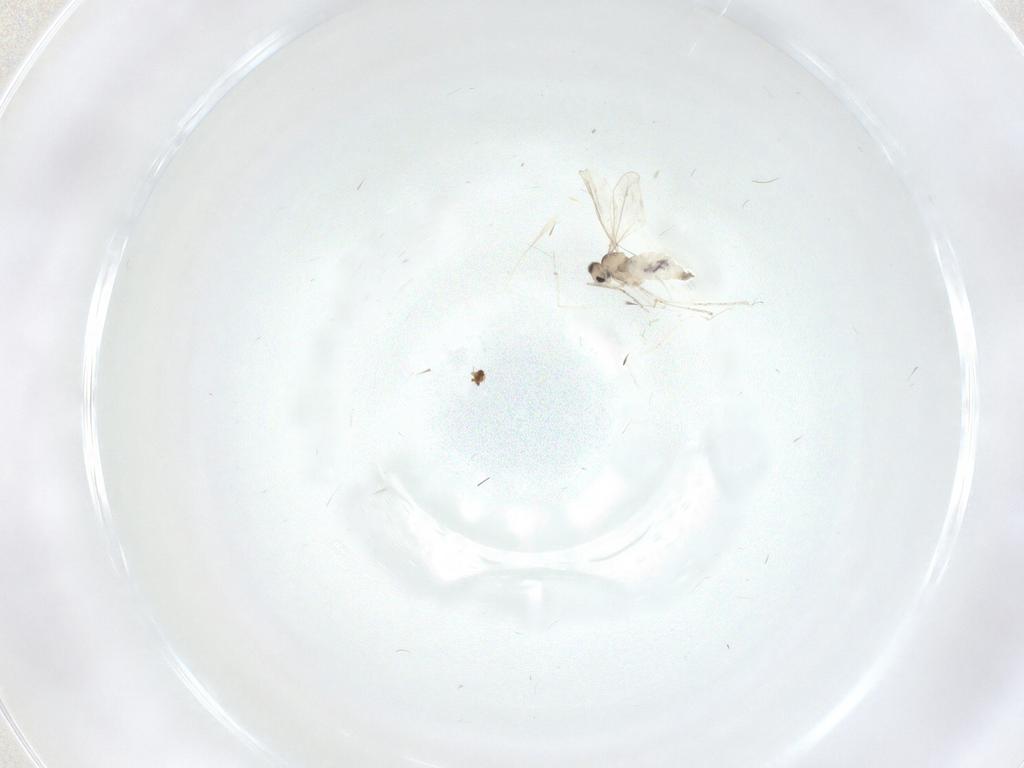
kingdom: Animalia
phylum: Arthropoda
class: Insecta
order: Diptera
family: Cecidomyiidae
